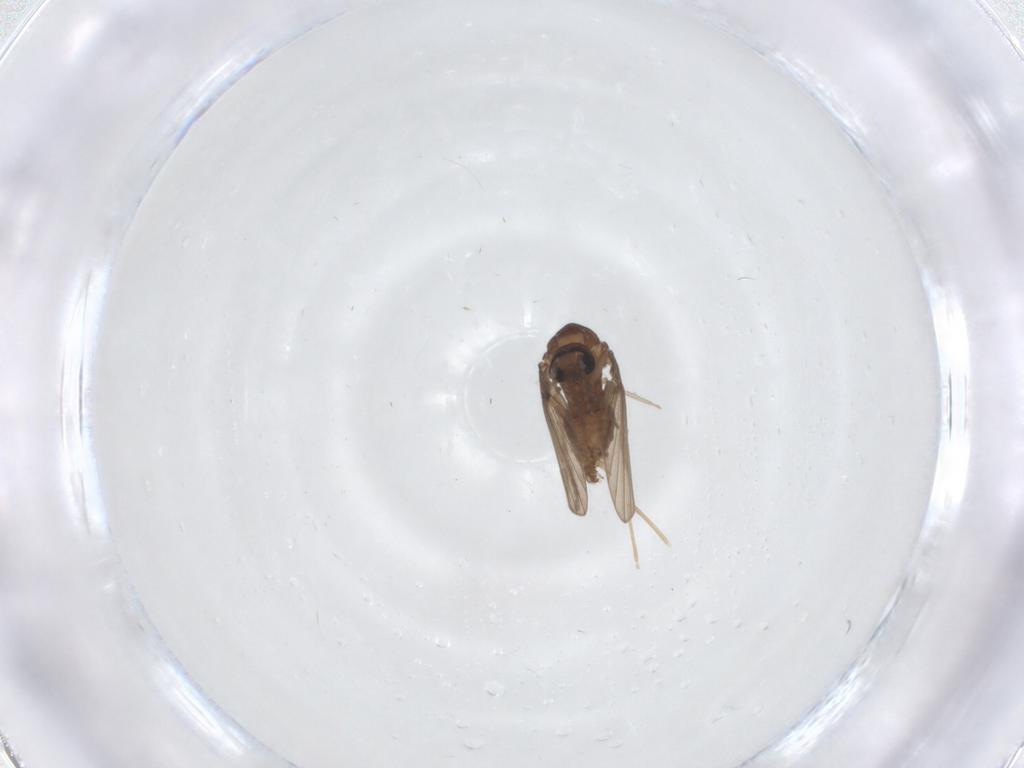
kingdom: Animalia
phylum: Arthropoda
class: Insecta
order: Diptera
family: Psychodidae
